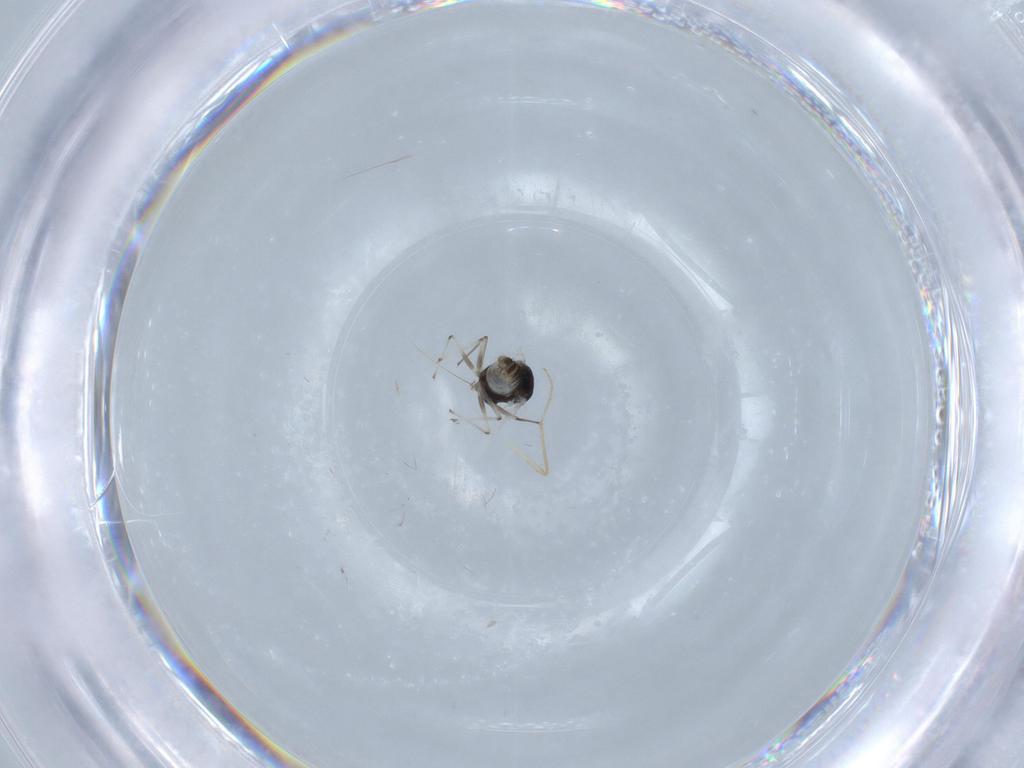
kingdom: Animalia
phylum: Arthropoda
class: Insecta
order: Diptera
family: Chironomidae
